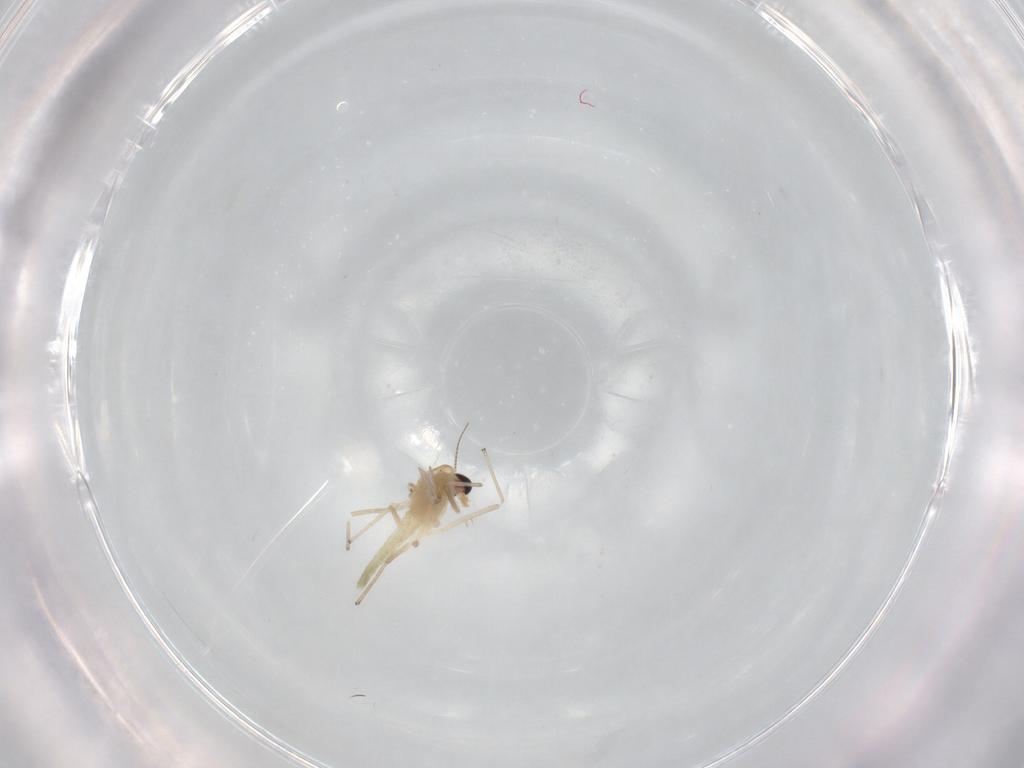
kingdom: Animalia
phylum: Arthropoda
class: Insecta
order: Diptera
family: Chironomidae
